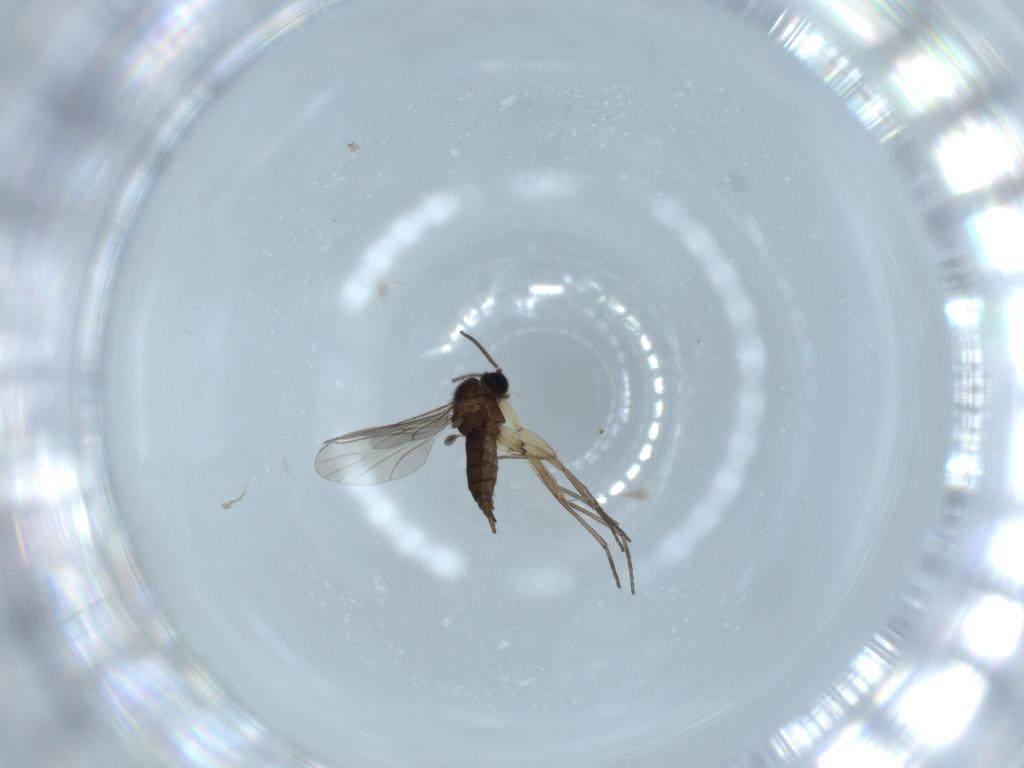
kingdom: Animalia
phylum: Arthropoda
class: Insecta
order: Diptera
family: Sciaridae
